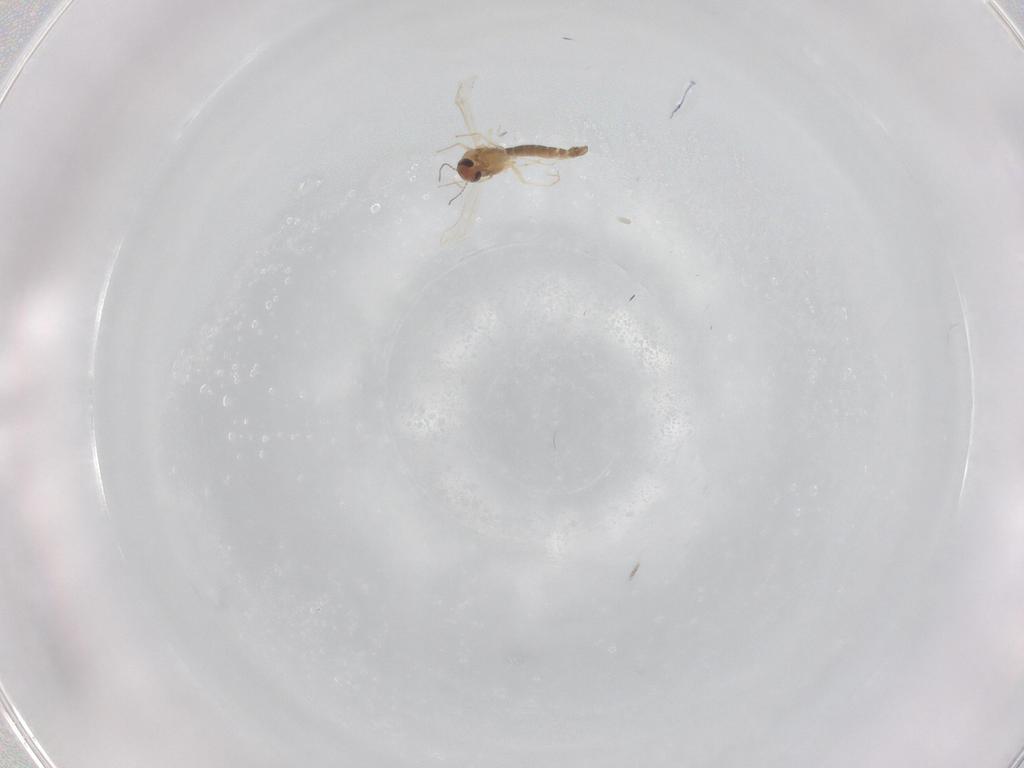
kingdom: Animalia
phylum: Arthropoda
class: Insecta
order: Diptera
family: Chironomidae
